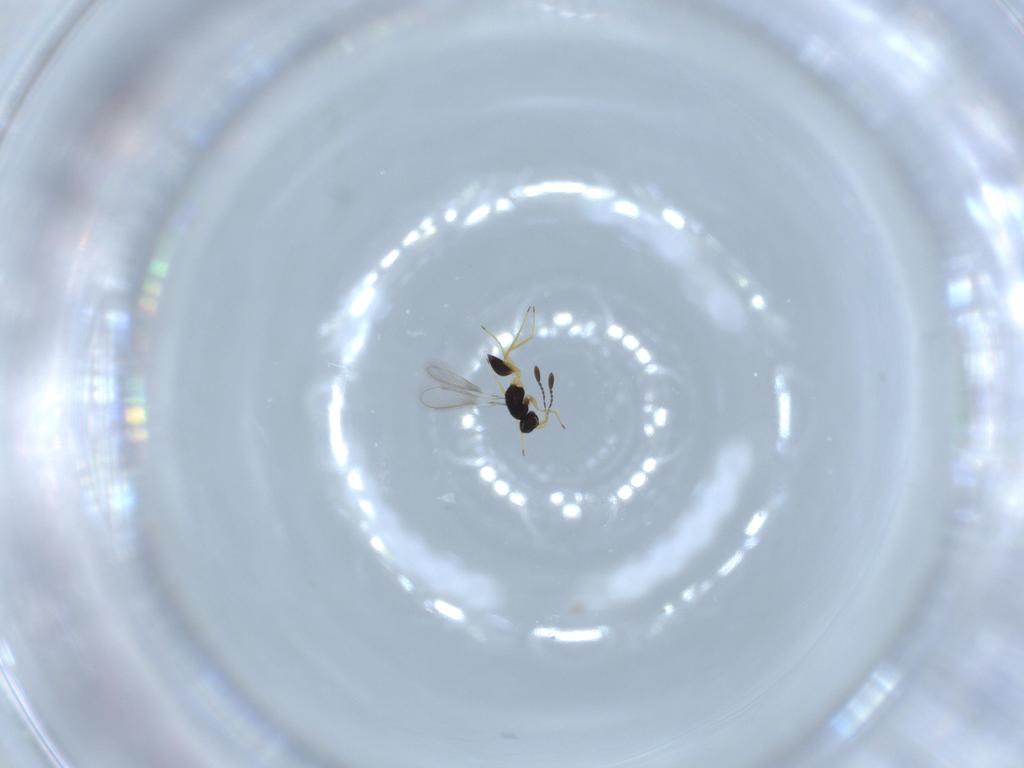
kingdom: Animalia
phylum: Arthropoda
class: Insecta
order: Hymenoptera
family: Mymaridae
